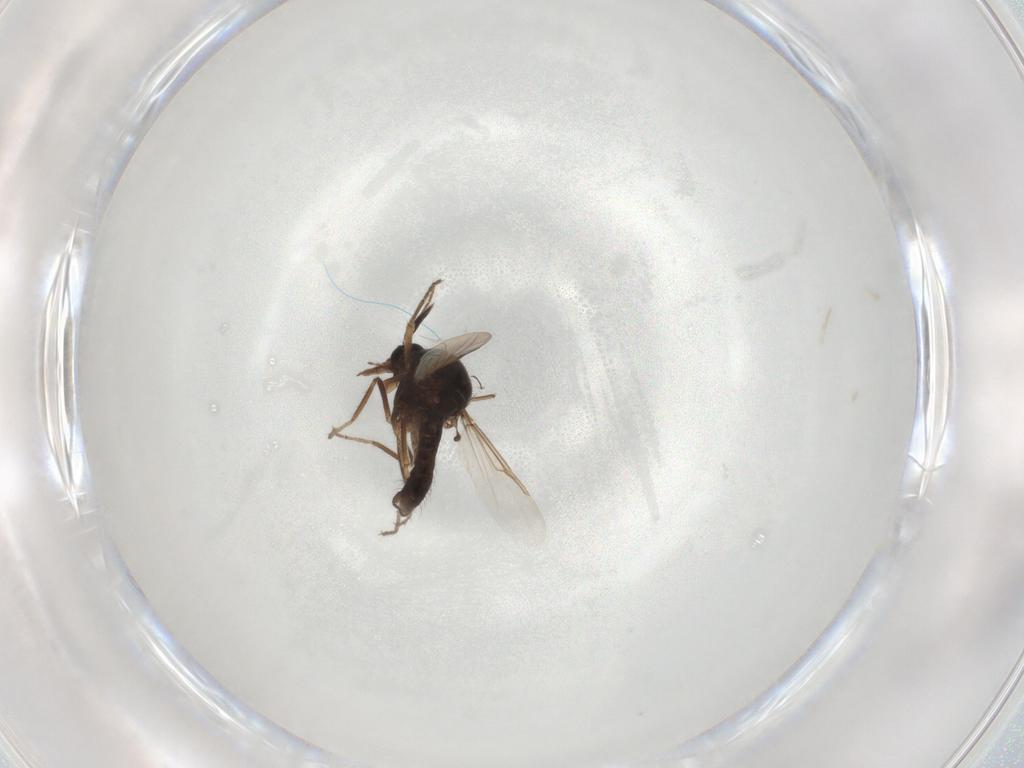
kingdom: Animalia
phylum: Arthropoda
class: Insecta
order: Diptera
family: Ceratopogonidae
